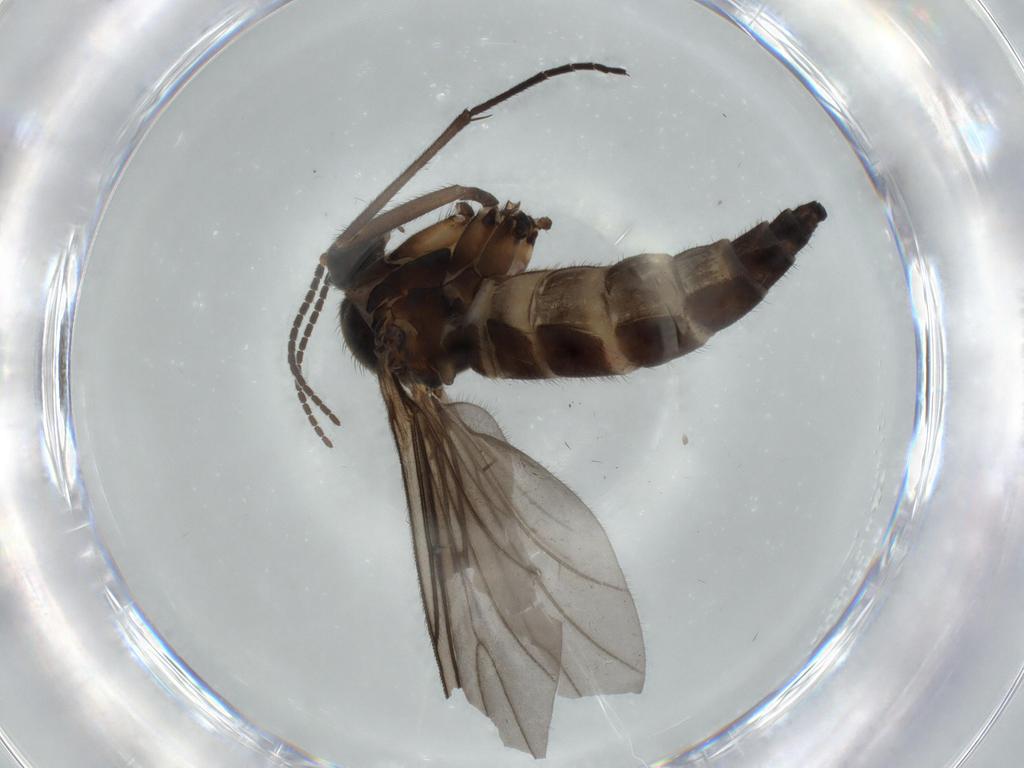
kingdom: Animalia
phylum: Arthropoda
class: Insecta
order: Diptera
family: Sciaridae
